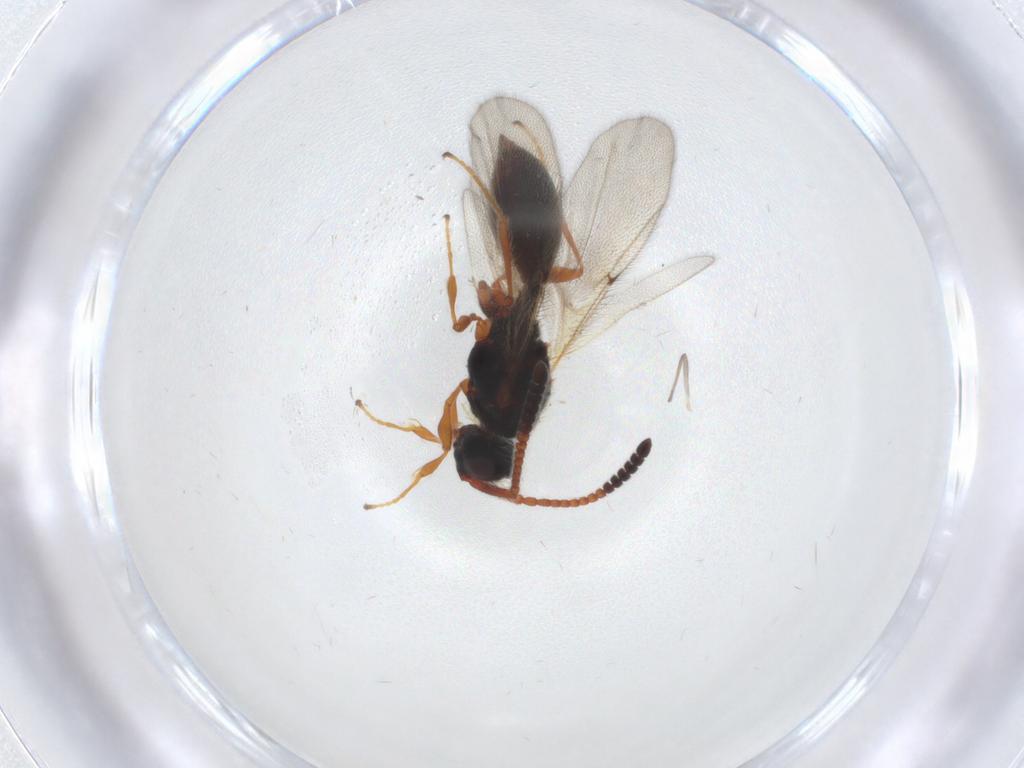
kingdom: Animalia
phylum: Arthropoda
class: Insecta
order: Hymenoptera
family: Diapriidae
